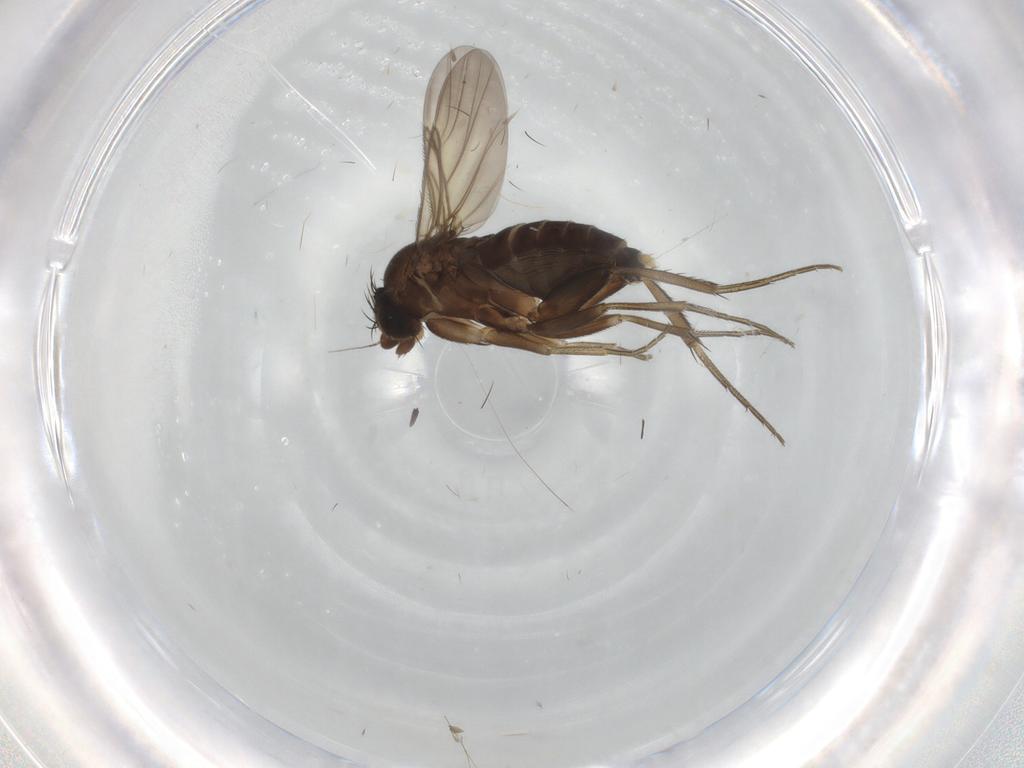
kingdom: Animalia
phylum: Arthropoda
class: Insecta
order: Diptera
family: Phoridae
